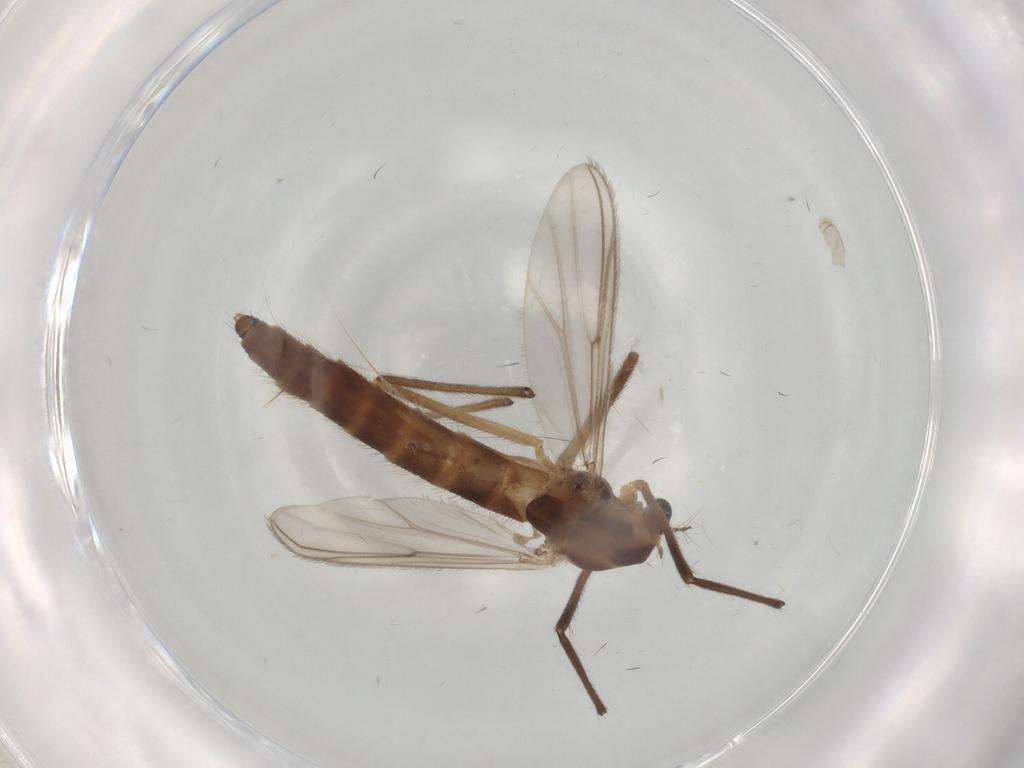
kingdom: Animalia
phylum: Arthropoda
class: Insecta
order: Diptera
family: Chironomidae
